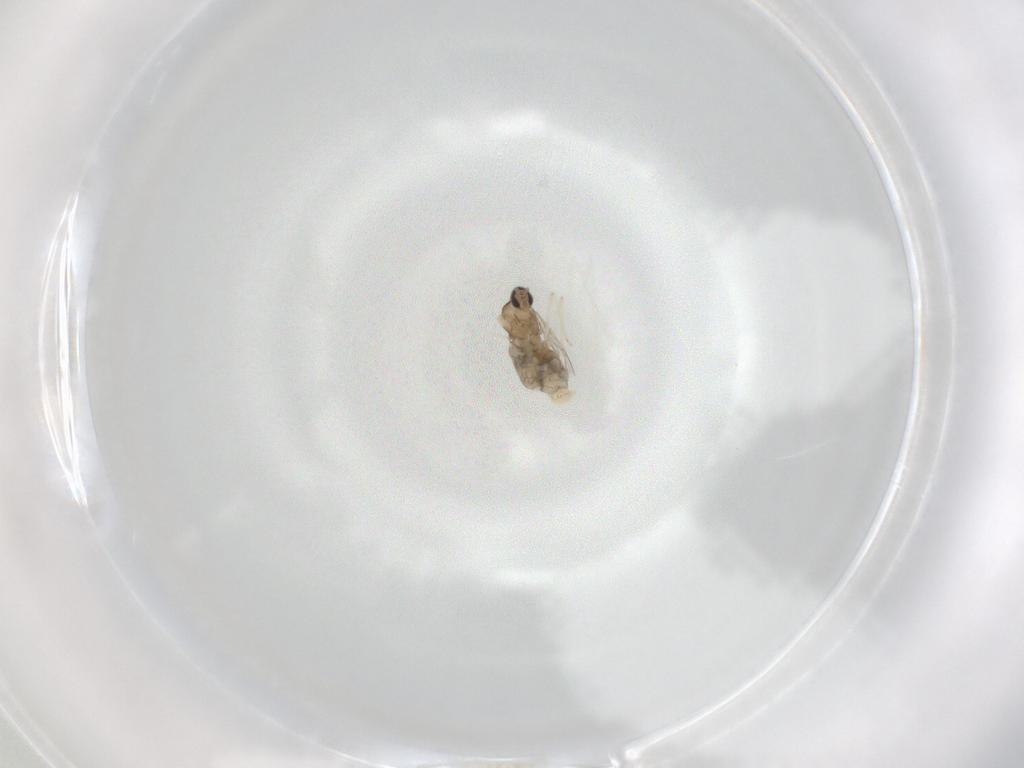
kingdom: Animalia
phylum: Arthropoda
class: Insecta
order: Diptera
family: Cecidomyiidae
